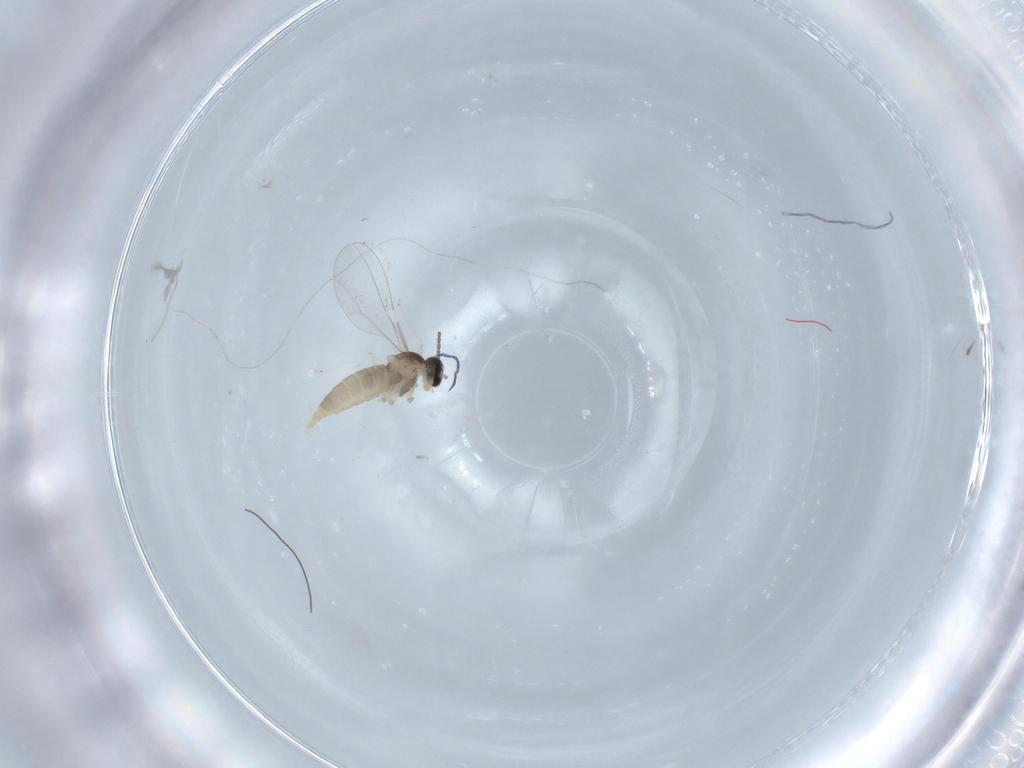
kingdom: Animalia
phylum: Arthropoda
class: Insecta
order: Diptera
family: Cecidomyiidae
